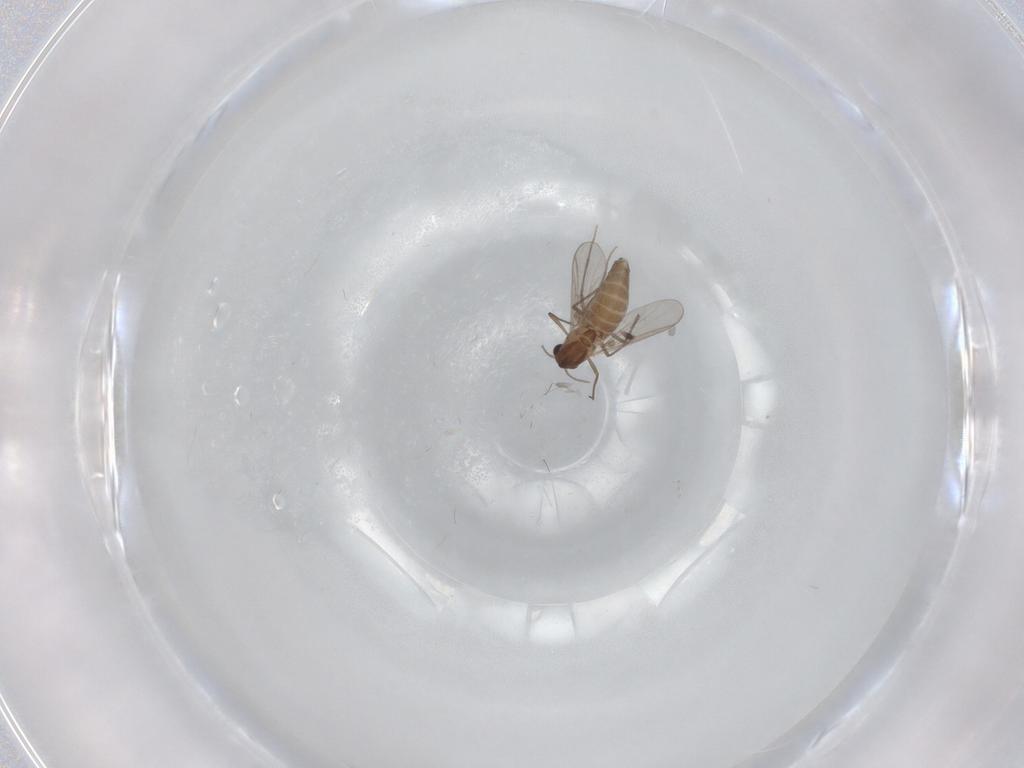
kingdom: Animalia
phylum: Arthropoda
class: Insecta
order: Diptera
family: Chironomidae
